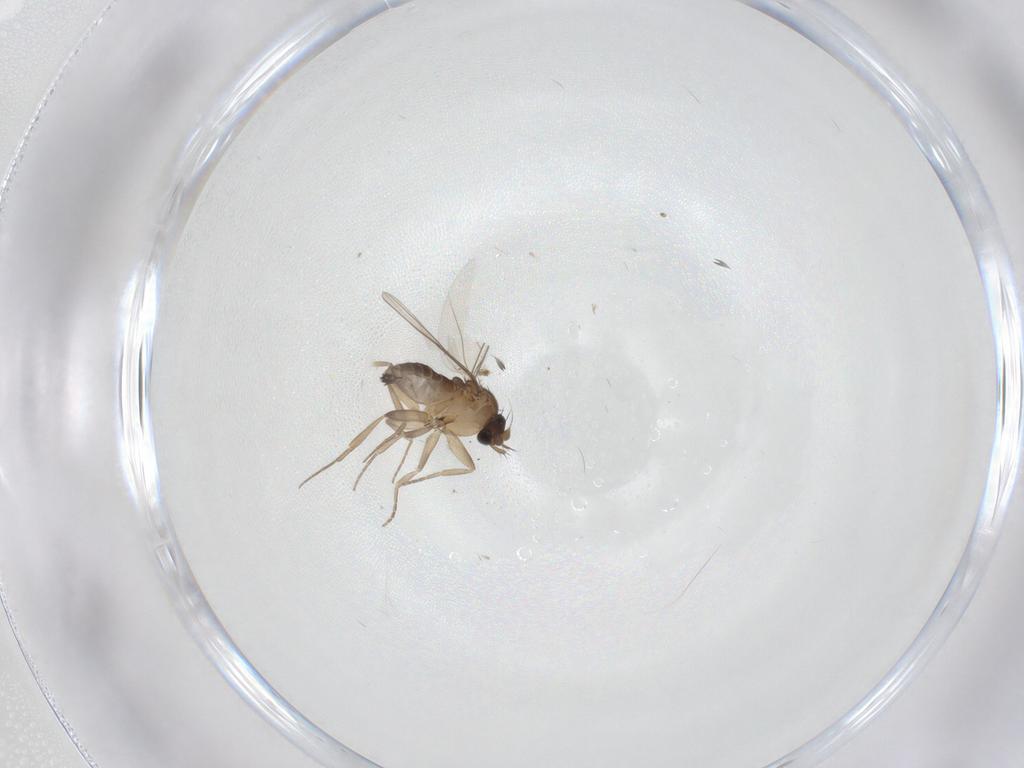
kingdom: Animalia
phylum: Arthropoda
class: Insecta
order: Diptera
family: Phoridae
